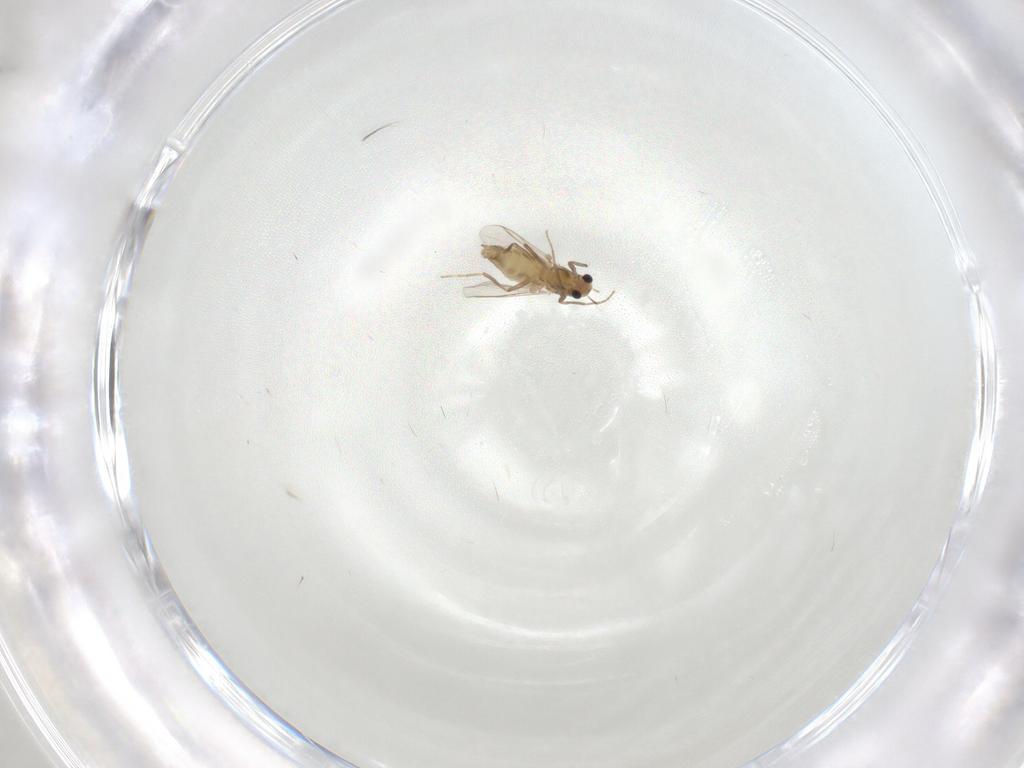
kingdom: Animalia
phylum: Arthropoda
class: Insecta
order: Diptera
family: Chironomidae
